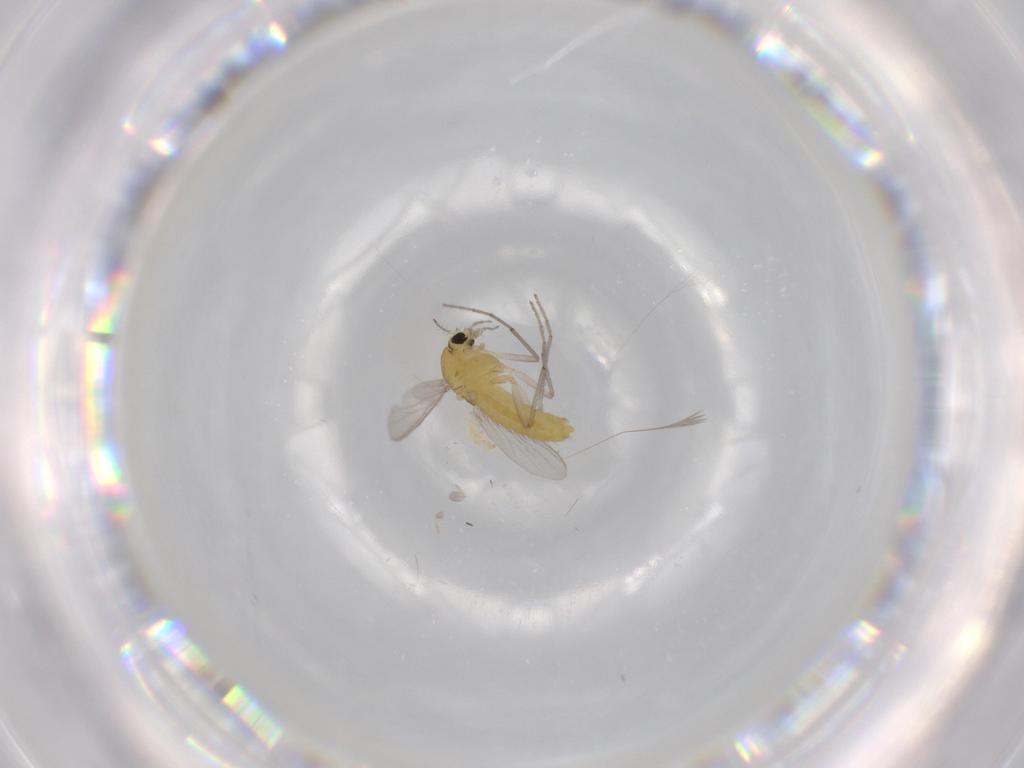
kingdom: Animalia
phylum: Arthropoda
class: Insecta
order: Diptera
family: Chironomidae
